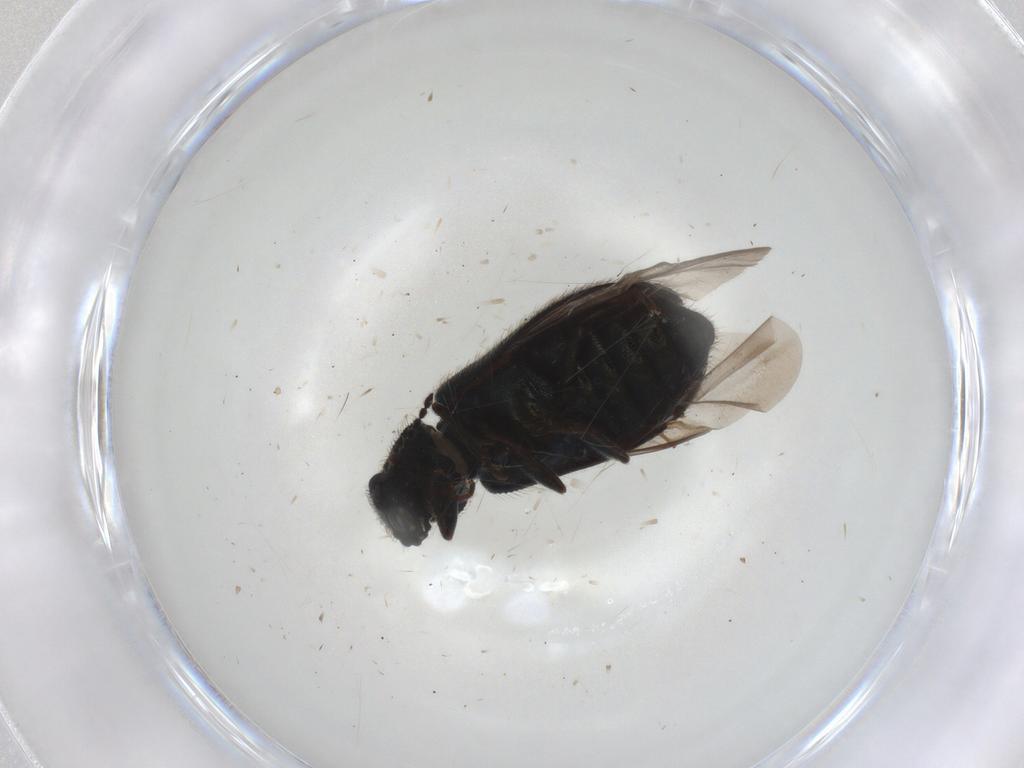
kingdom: Animalia
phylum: Arthropoda
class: Insecta
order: Coleoptera
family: Melyridae
